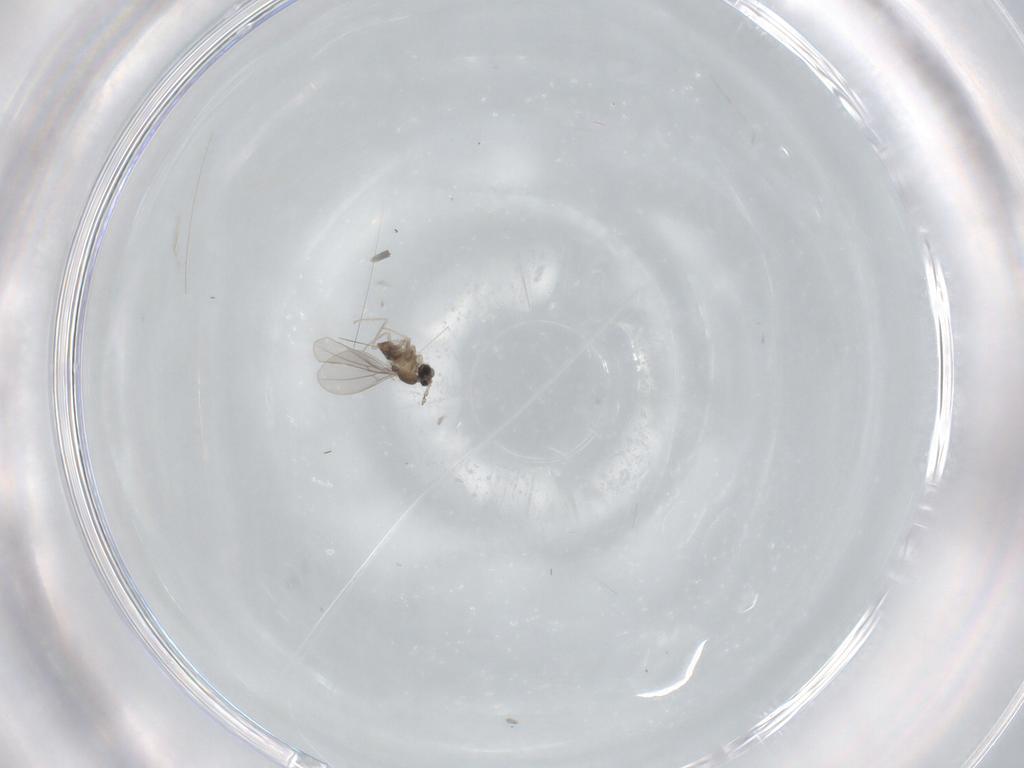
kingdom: Animalia
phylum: Arthropoda
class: Insecta
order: Diptera
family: Cecidomyiidae
